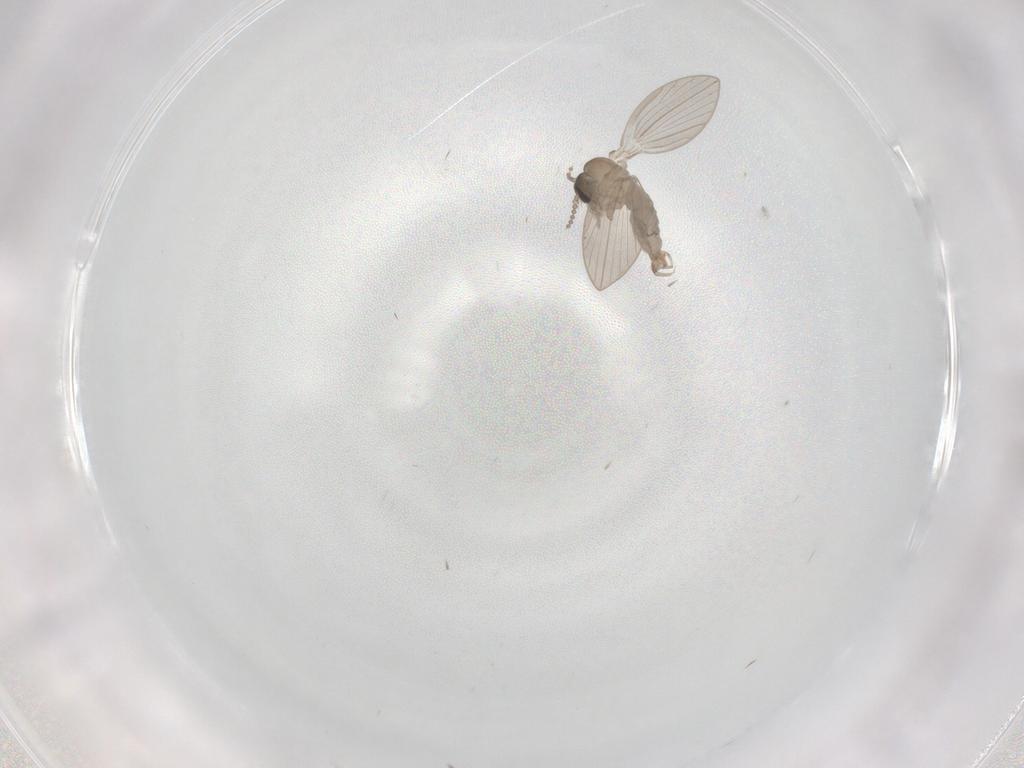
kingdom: Animalia
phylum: Arthropoda
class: Insecta
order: Diptera
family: Psychodidae
